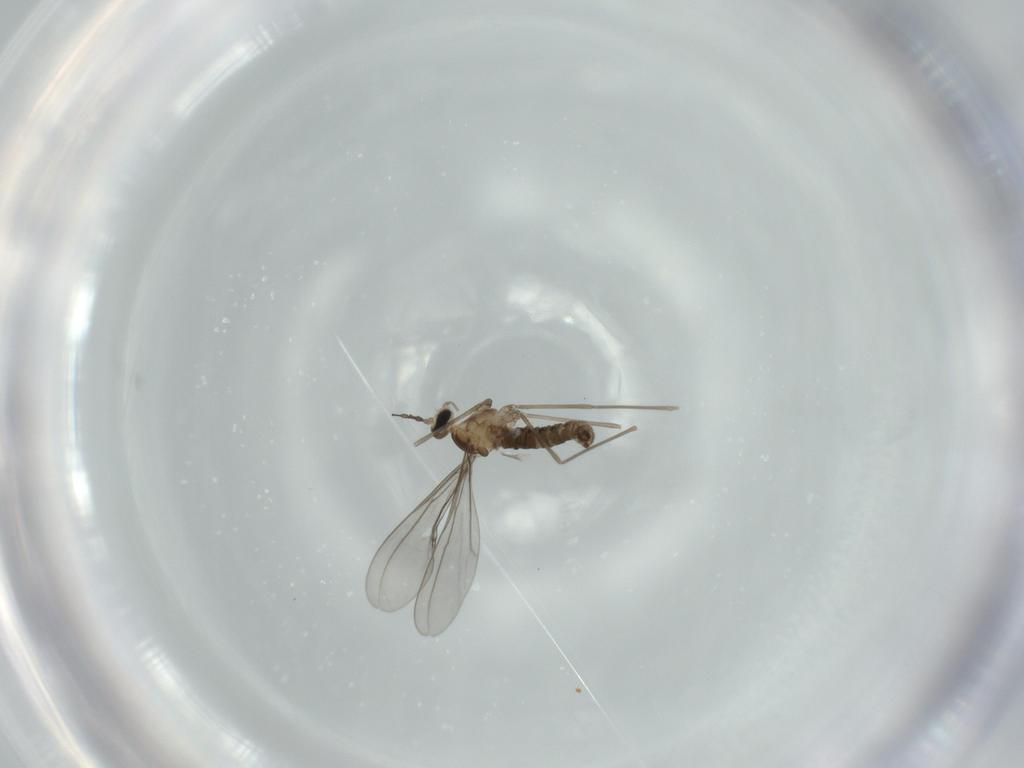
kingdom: Animalia
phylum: Arthropoda
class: Insecta
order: Diptera
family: Cecidomyiidae
